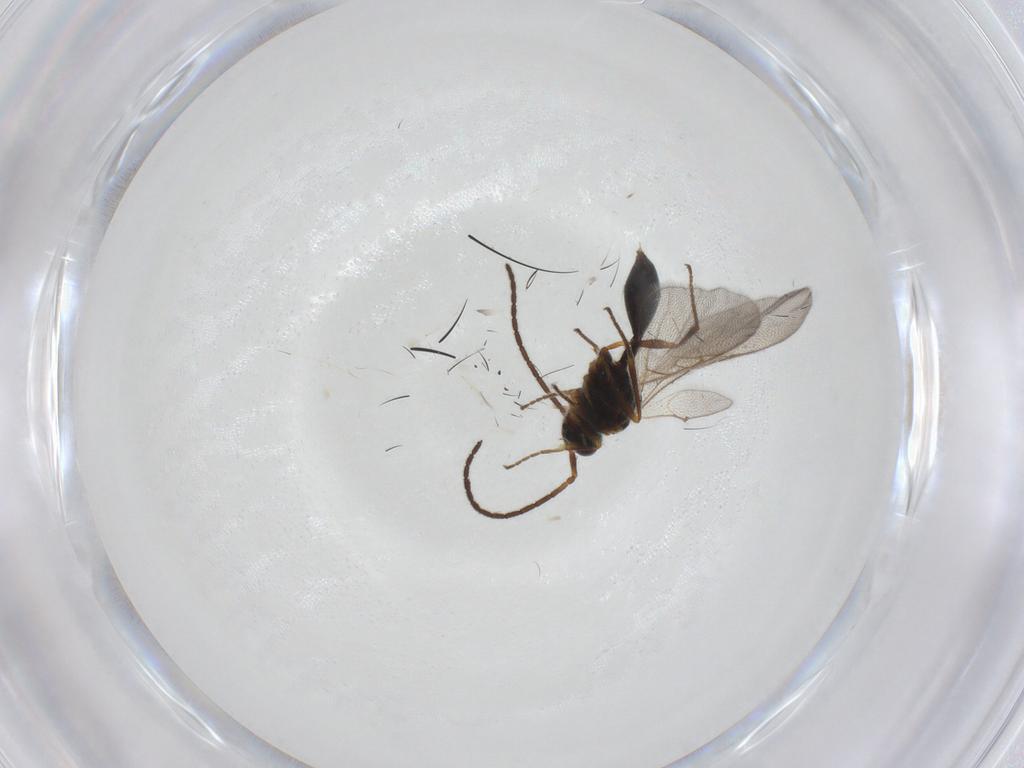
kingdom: Animalia
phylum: Arthropoda
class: Insecta
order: Hymenoptera
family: Diapriidae
